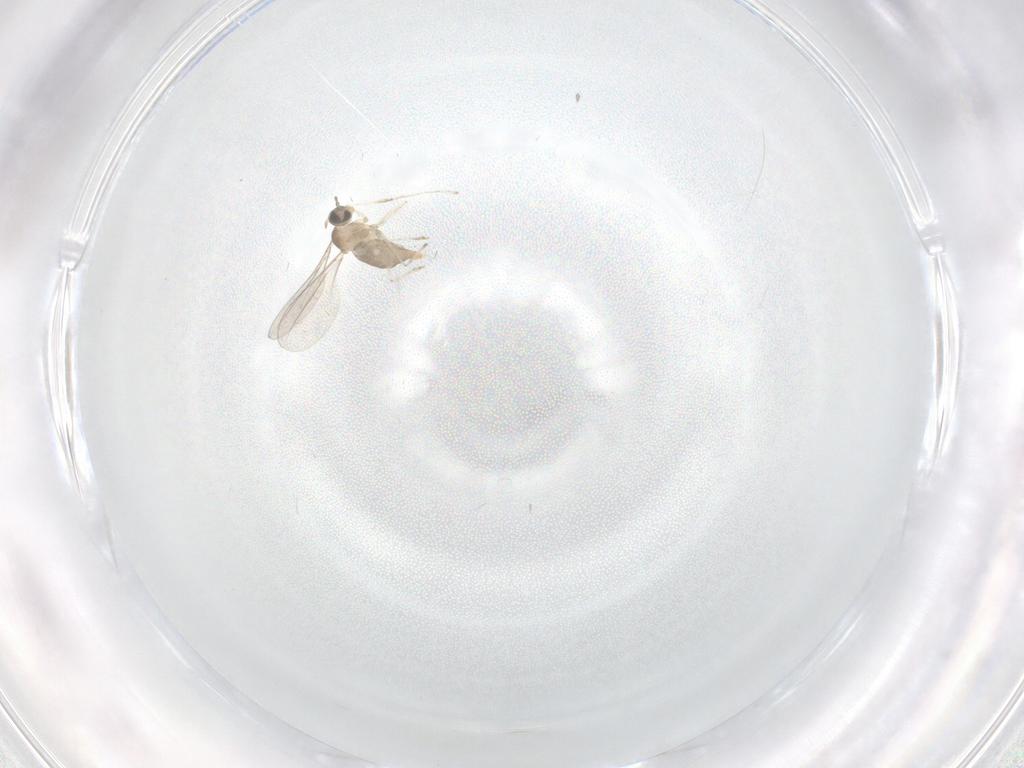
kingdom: Animalia
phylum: Arthropoda
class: Insecta
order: Diptera
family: Cecidomyiidae
